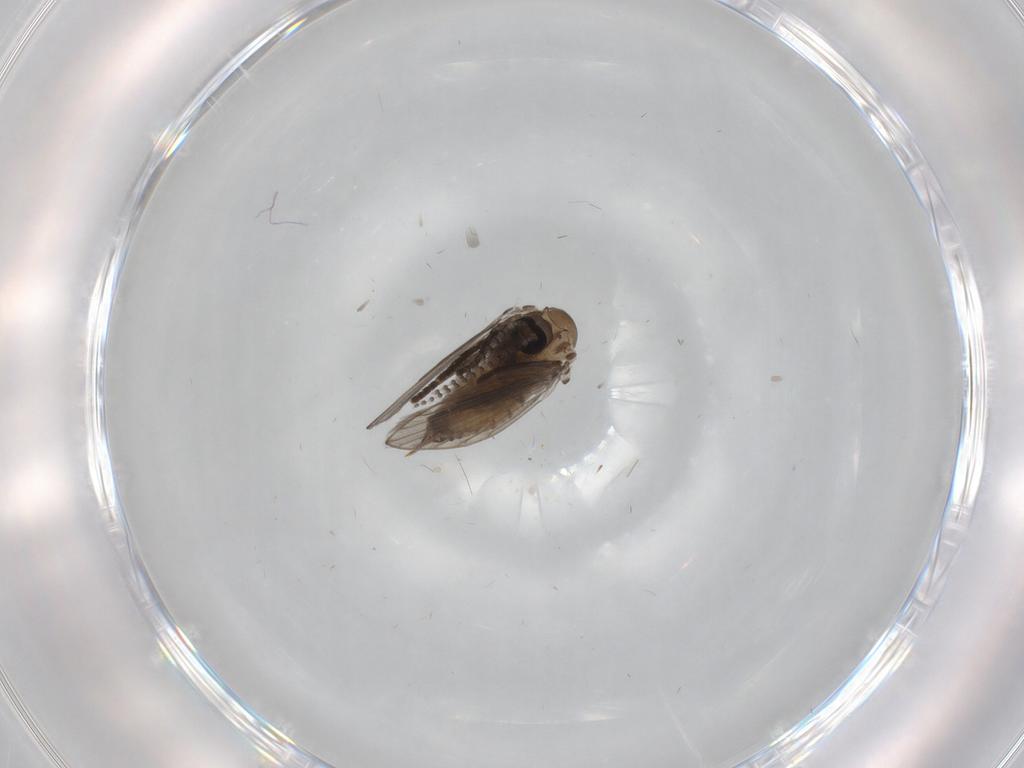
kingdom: Animalia
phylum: Arthropoda
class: Insecta
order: Diptera
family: Psychodidae
